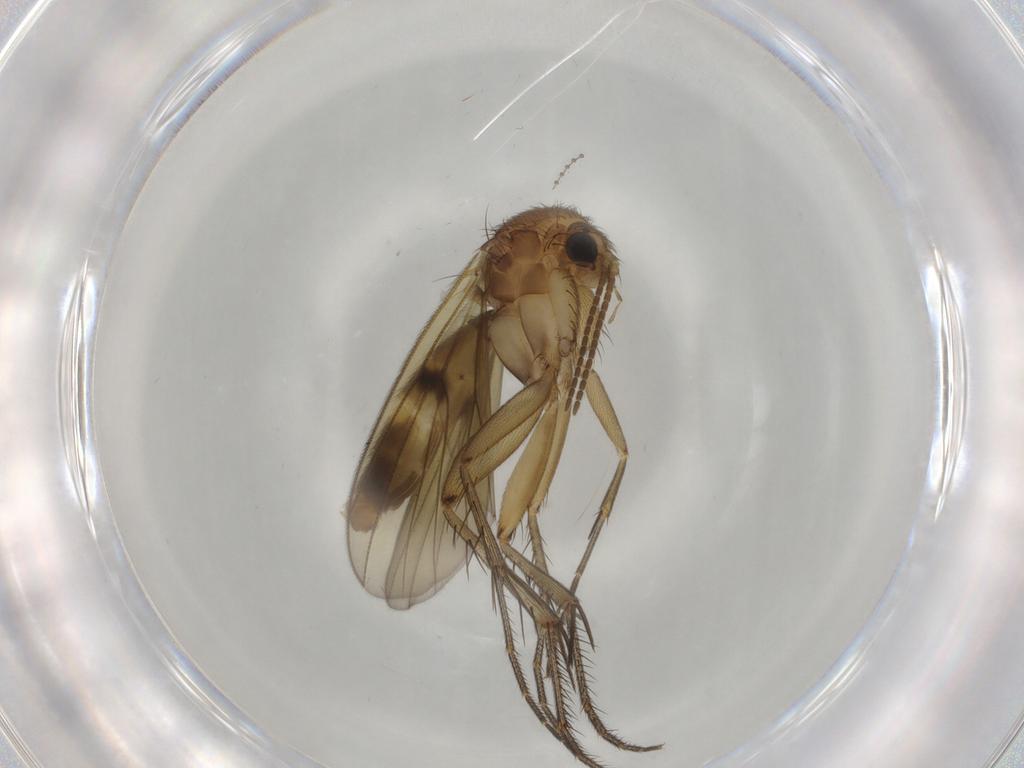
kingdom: Animalia
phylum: Arthropoda
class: Insecta
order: Diptera
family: Mycetophilidae
